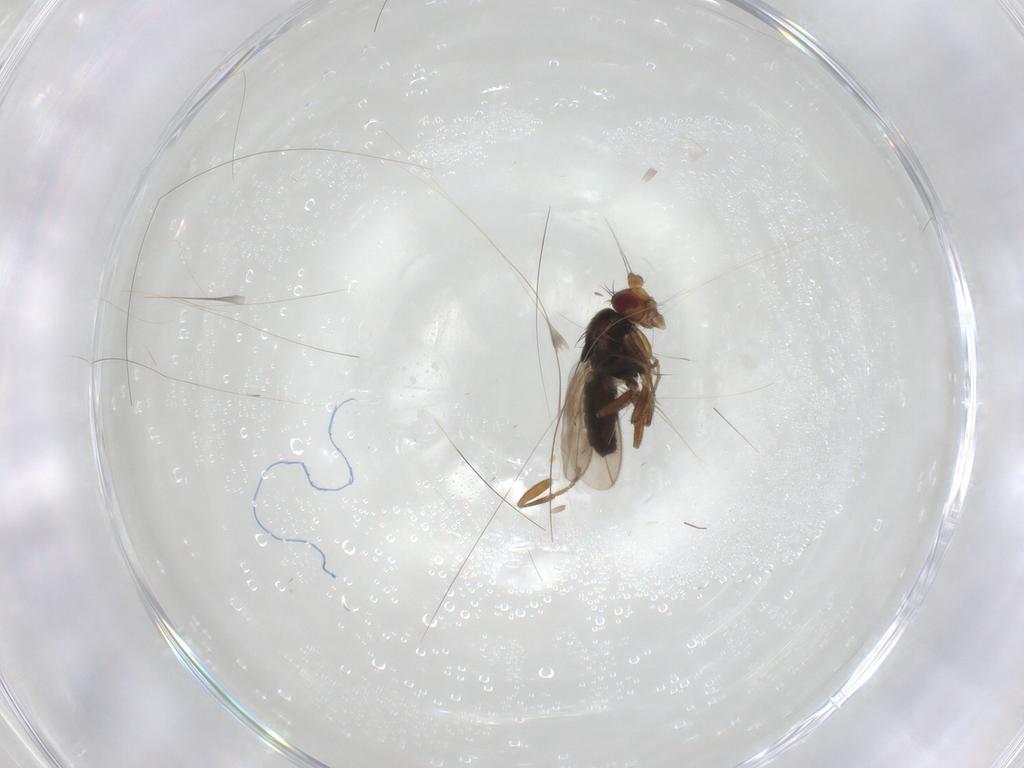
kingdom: Animalia
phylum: Arthropoda
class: Insecta
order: Diptera
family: Sphaeroceridae
